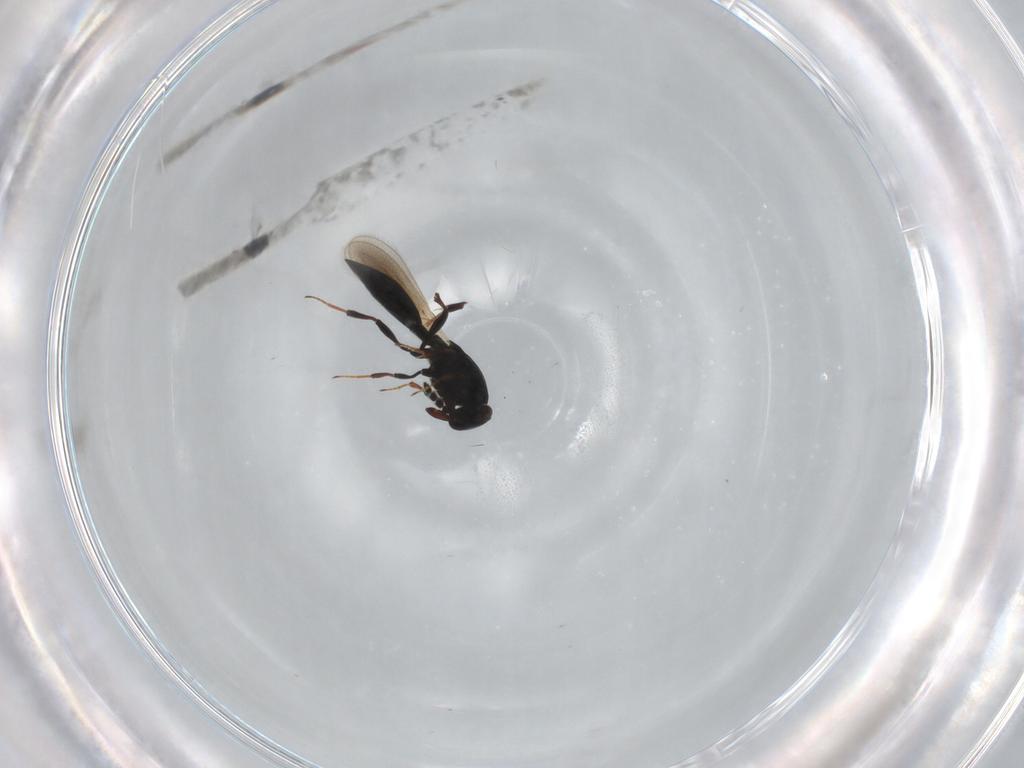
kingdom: Animalia
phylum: Arthropoda
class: Insecta
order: Hymenoptera
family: Platygastridae
